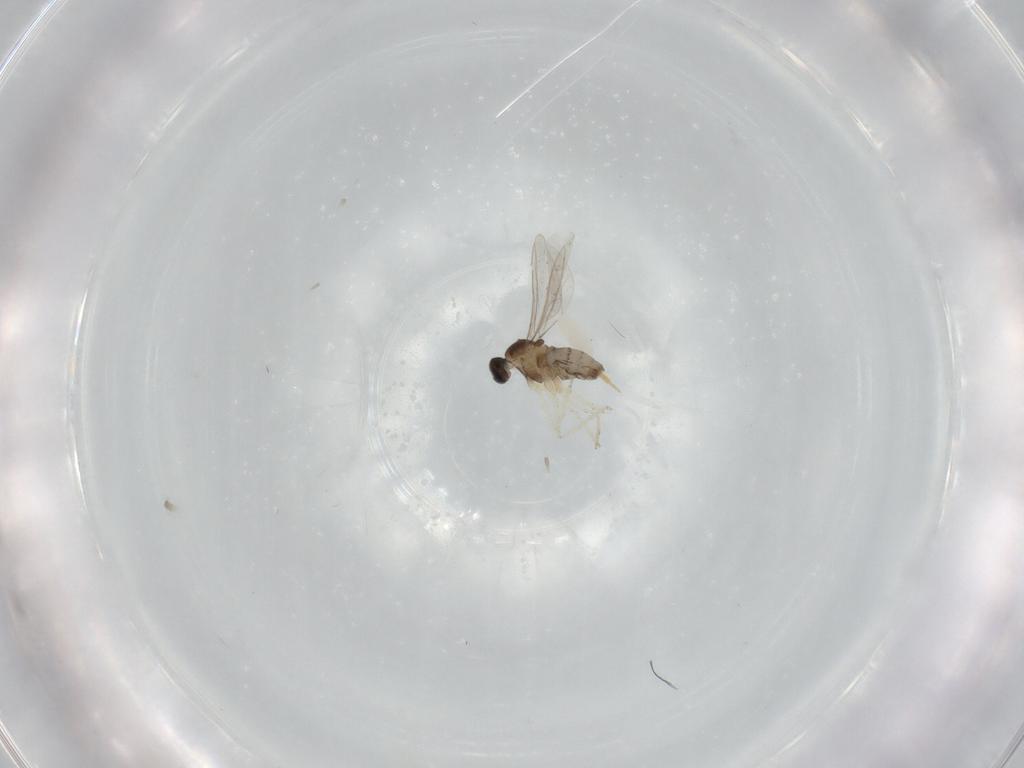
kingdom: Animalia
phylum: Arthropoda
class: Insecta
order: Diptera
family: Cecidomyiidae
